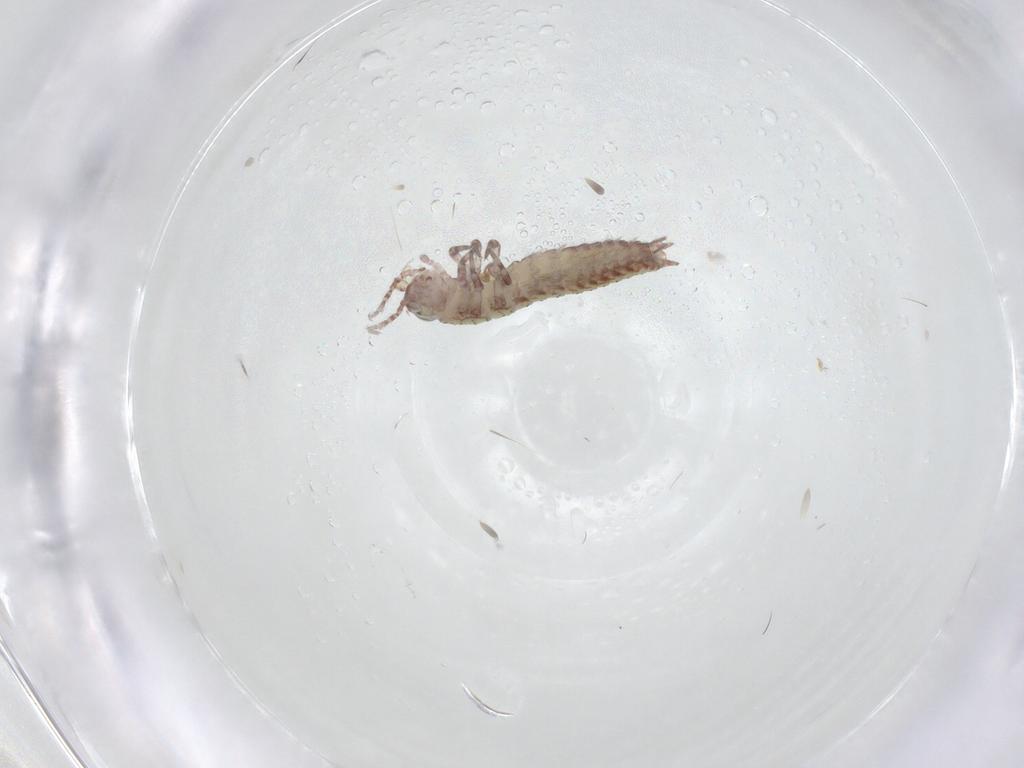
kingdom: Animalia
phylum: Arthropoda
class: Insecta
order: Archaeognatha
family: Machilidae
